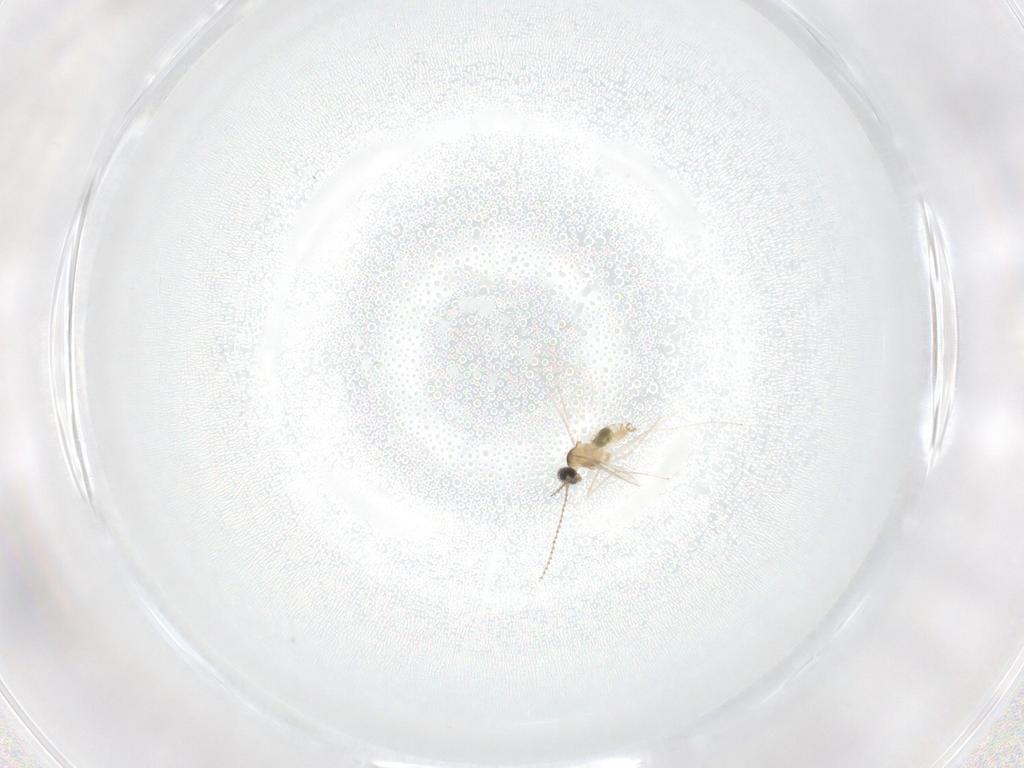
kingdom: Animalia
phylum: Arthropoda
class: Insecta
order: Diptera
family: Cecidomyiidae
